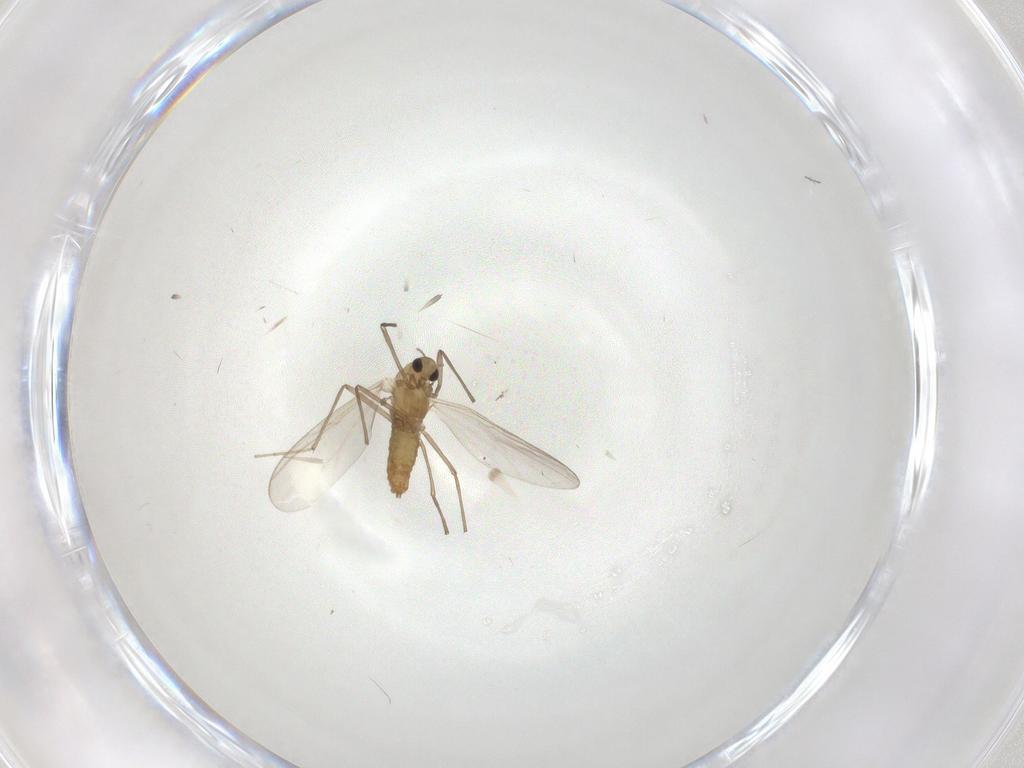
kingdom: Animalia
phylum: Arthropoda
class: Insecta
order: Diptera
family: Chironomidae
